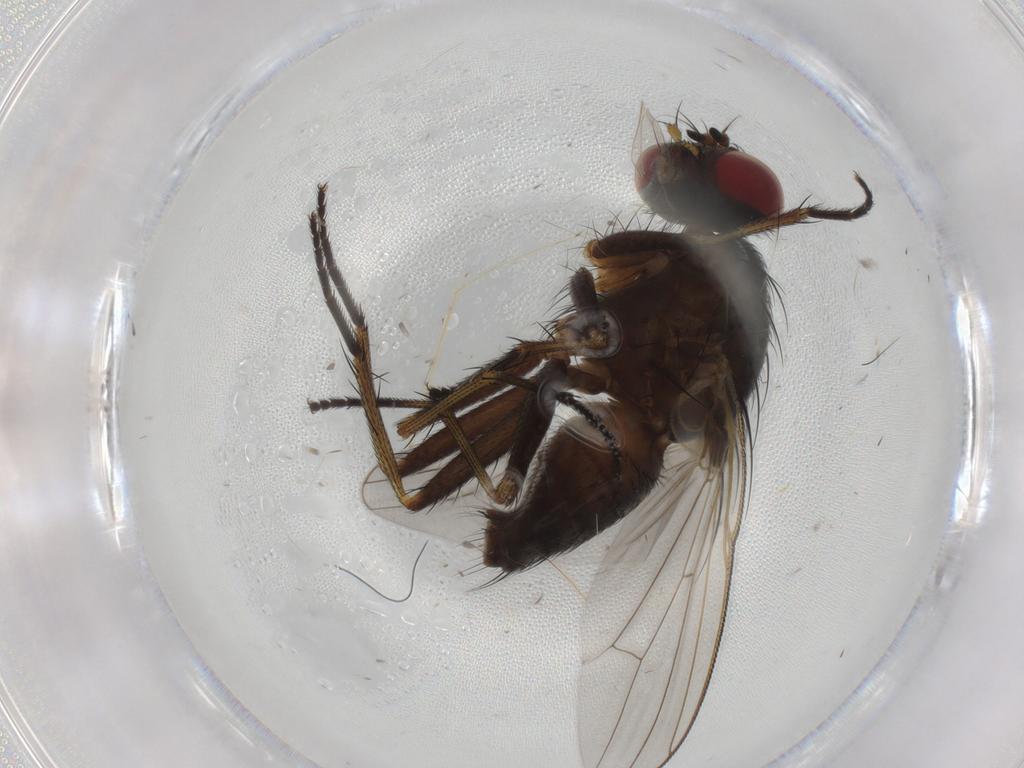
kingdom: Animalia
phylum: Arthropoda
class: Insecta
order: Diptera
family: Muscidae
